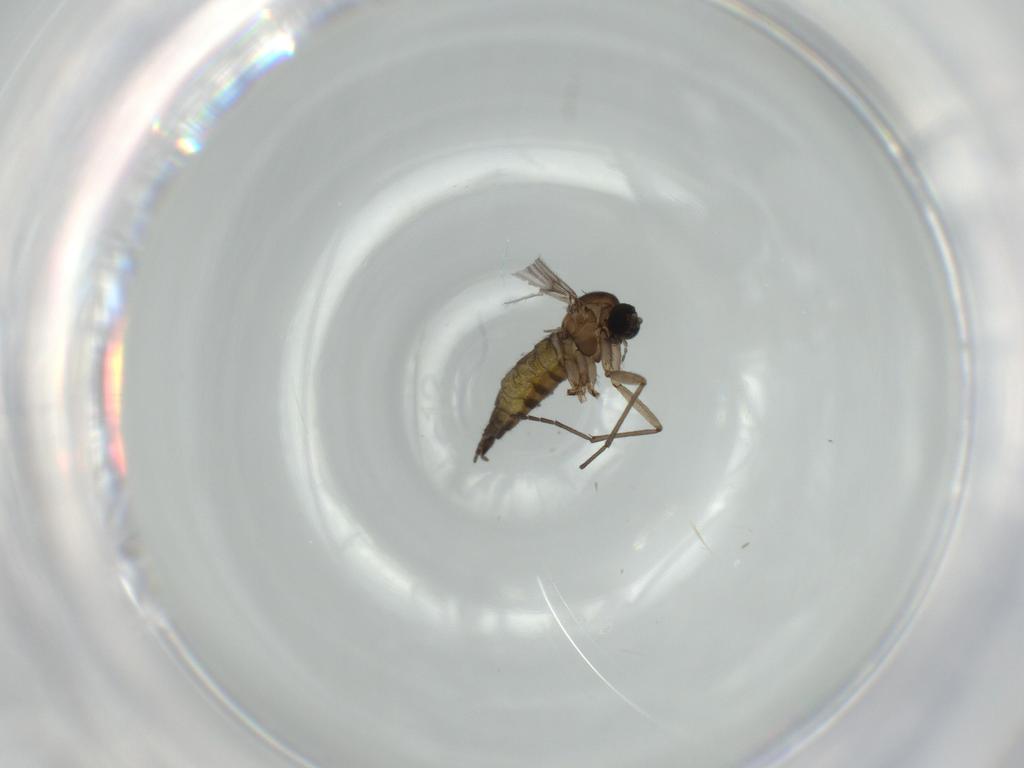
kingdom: Animalia
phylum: Arthropoda
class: Insecta
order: Diptera
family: Sciaridae
